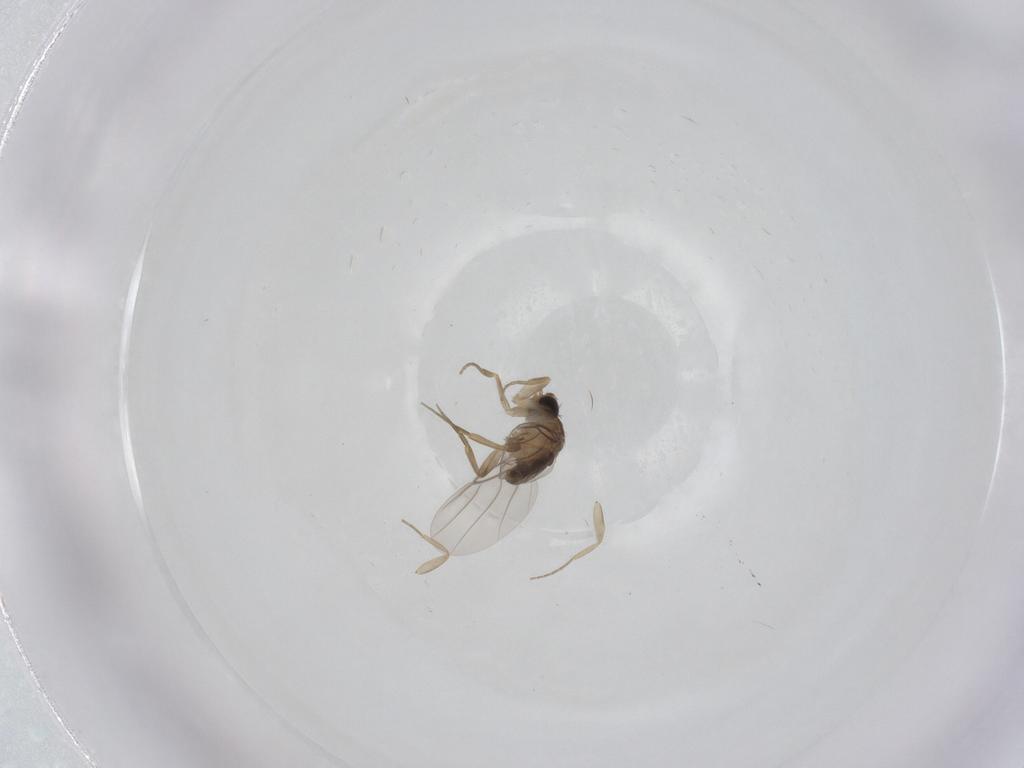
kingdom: Animalia
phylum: Arthropoda
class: Insecta
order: Diptera
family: Phoridae
